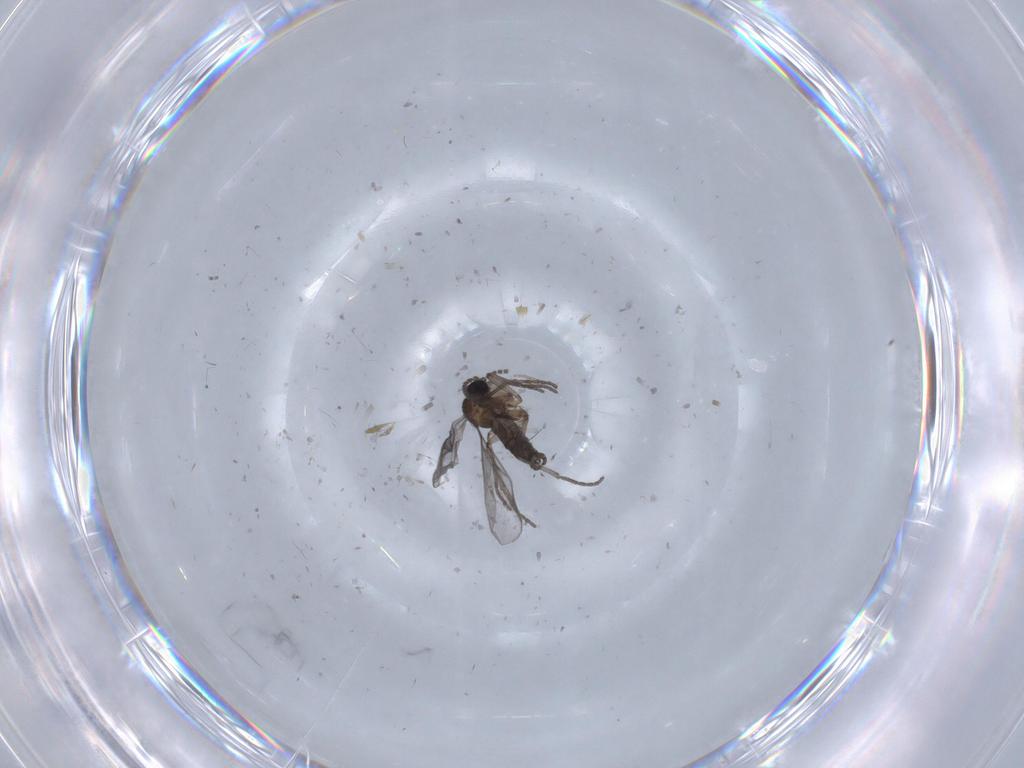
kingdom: Animalia
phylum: Arthropoda
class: Insecta
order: Diptera
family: Chironomidae
